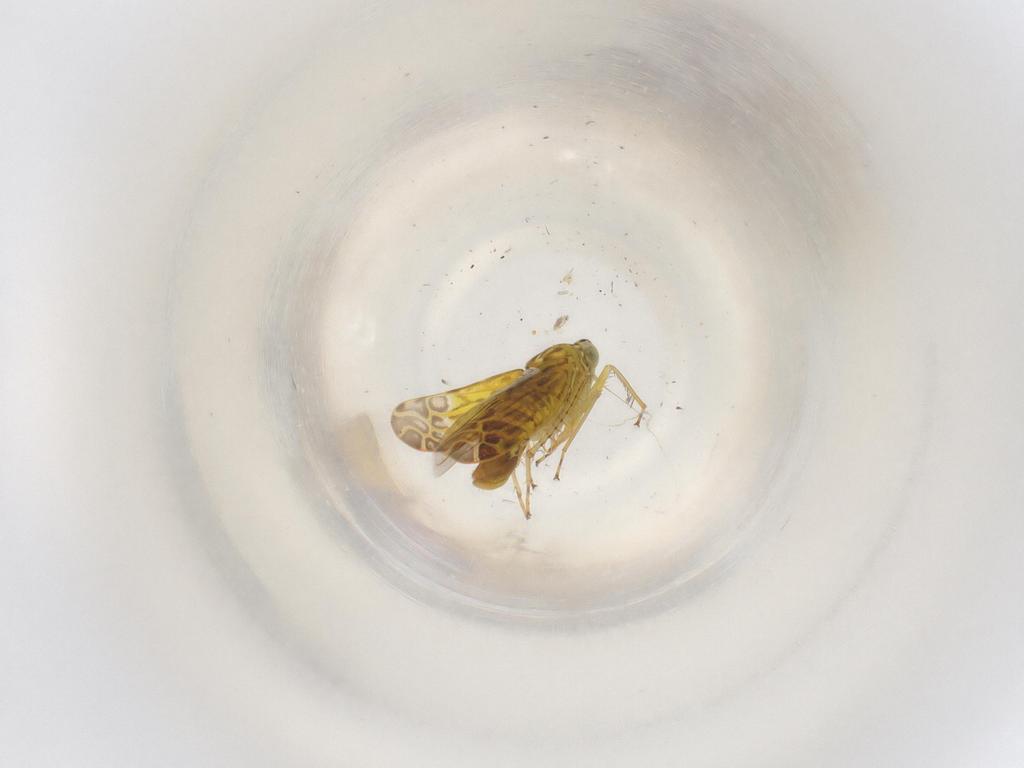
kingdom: Animalia
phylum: Arthropoda
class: Insecta
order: Hemiptera
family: Cicadellidae
